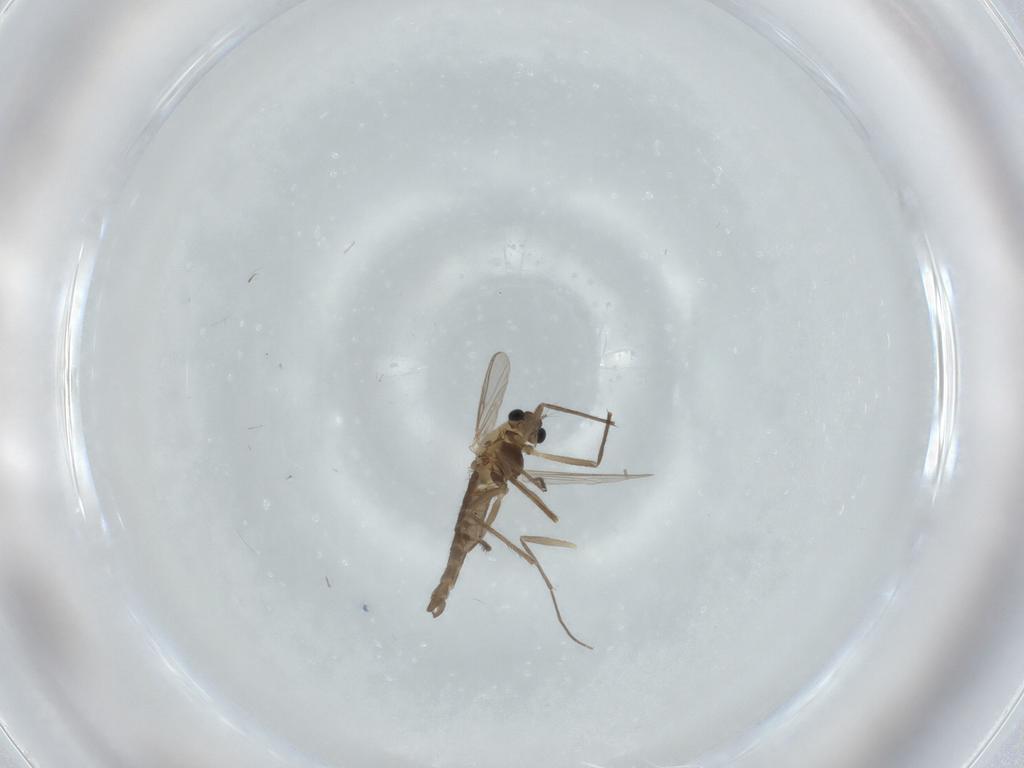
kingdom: Animalia
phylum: Arthropoda
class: Insecta
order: Diptera
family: Chironomidae
